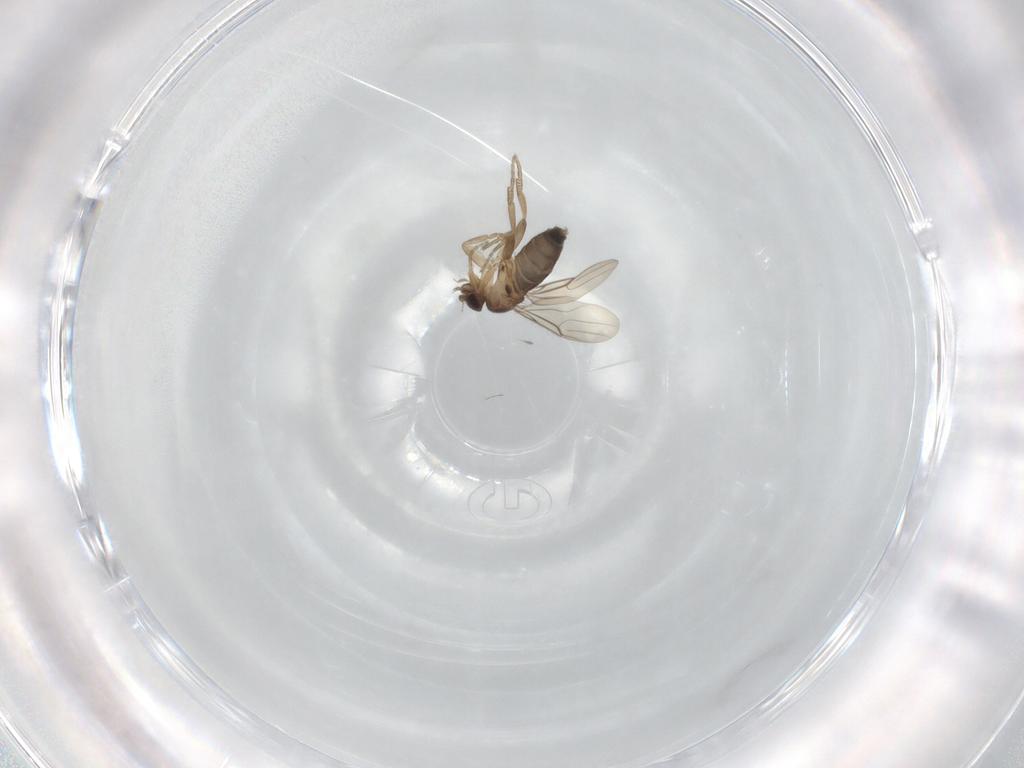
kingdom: Animalia
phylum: Arthropoda
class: Insecta
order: Diptera
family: Phoridae
